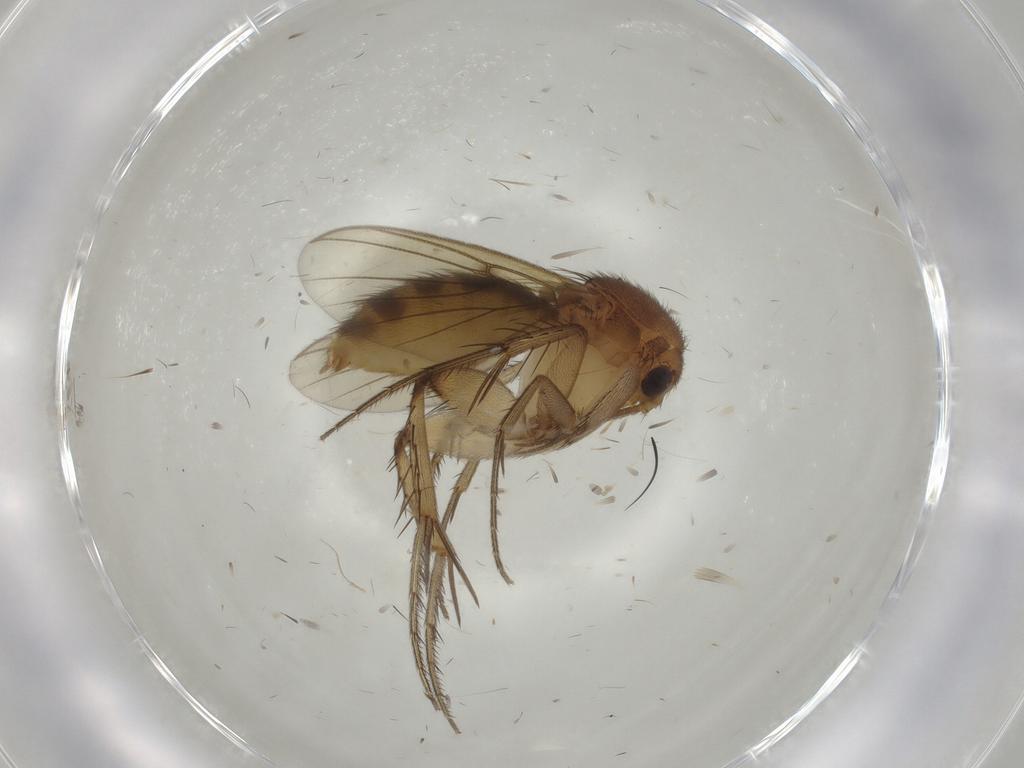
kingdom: Animalia
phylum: Arthropoda
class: Insecta
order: Diptera
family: Mycetophilidae
